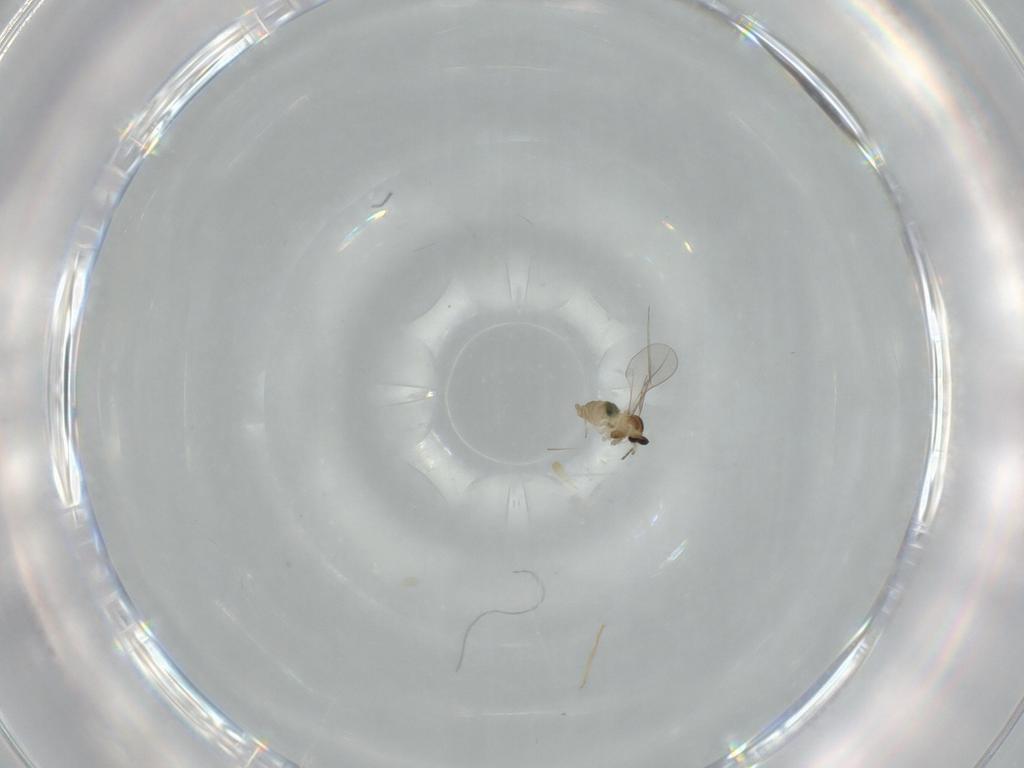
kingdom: Animalia
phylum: Arthropoda
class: Insecta
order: Diptera
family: Cecidomyiidae
